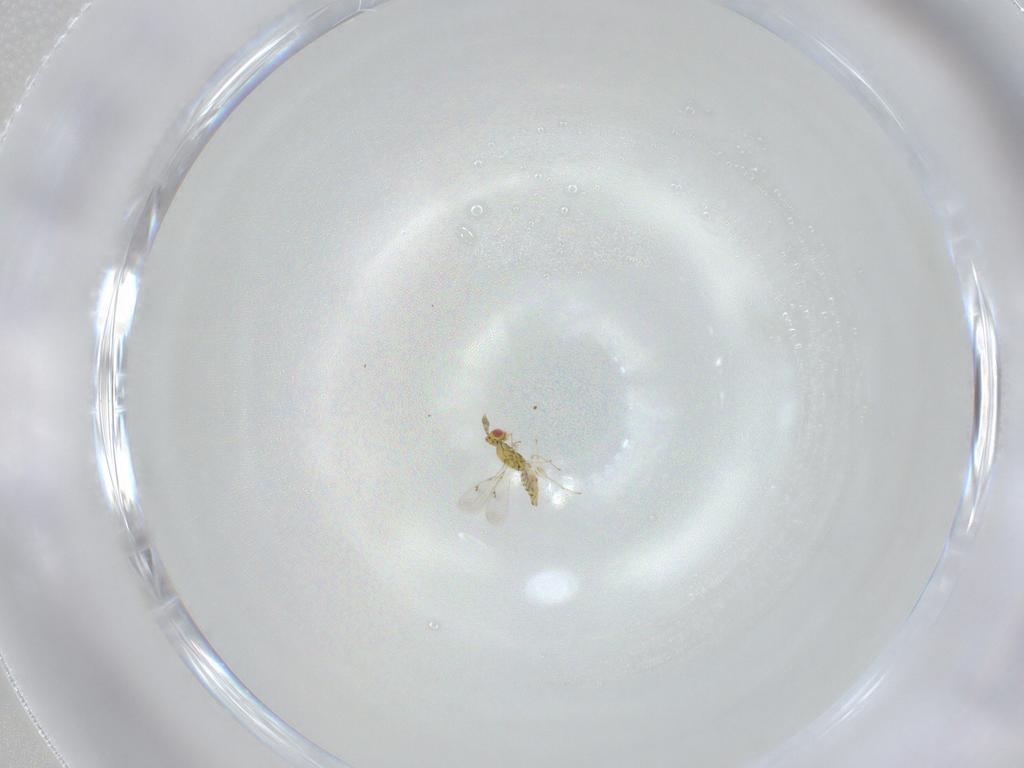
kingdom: Animalia
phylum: Arthropoda
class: Insecta
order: Hymenoptera
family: Eulophidae
